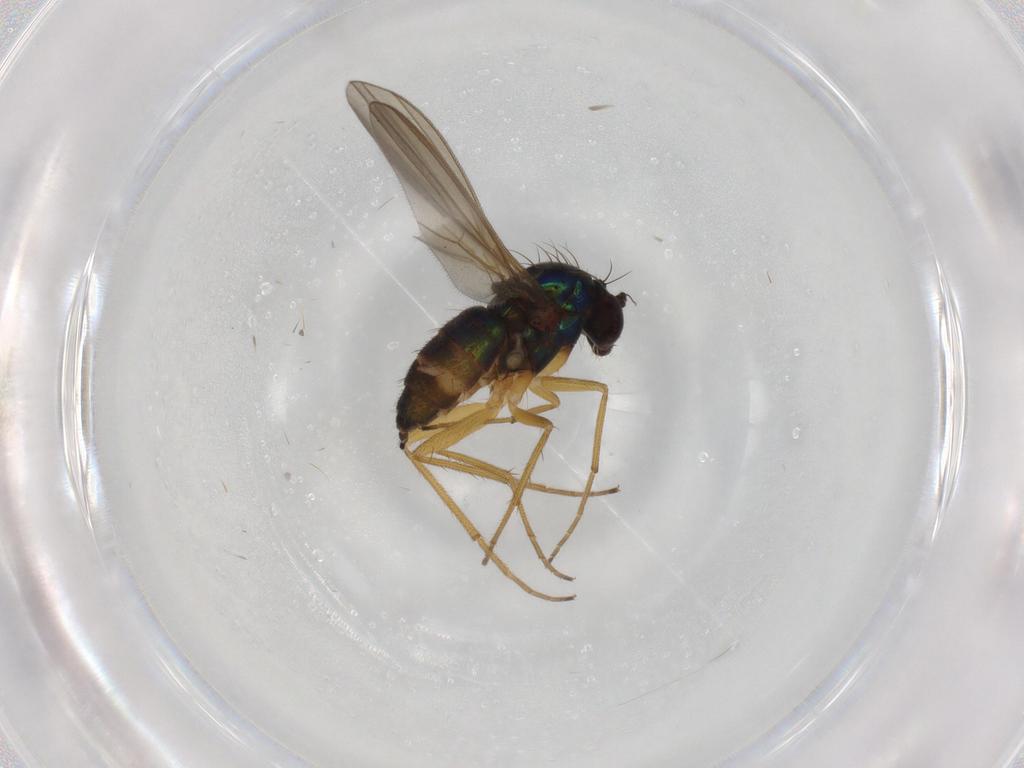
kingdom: Animalia
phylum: Arthropoda
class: Insecta
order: Diptera
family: Dolichopodidae
